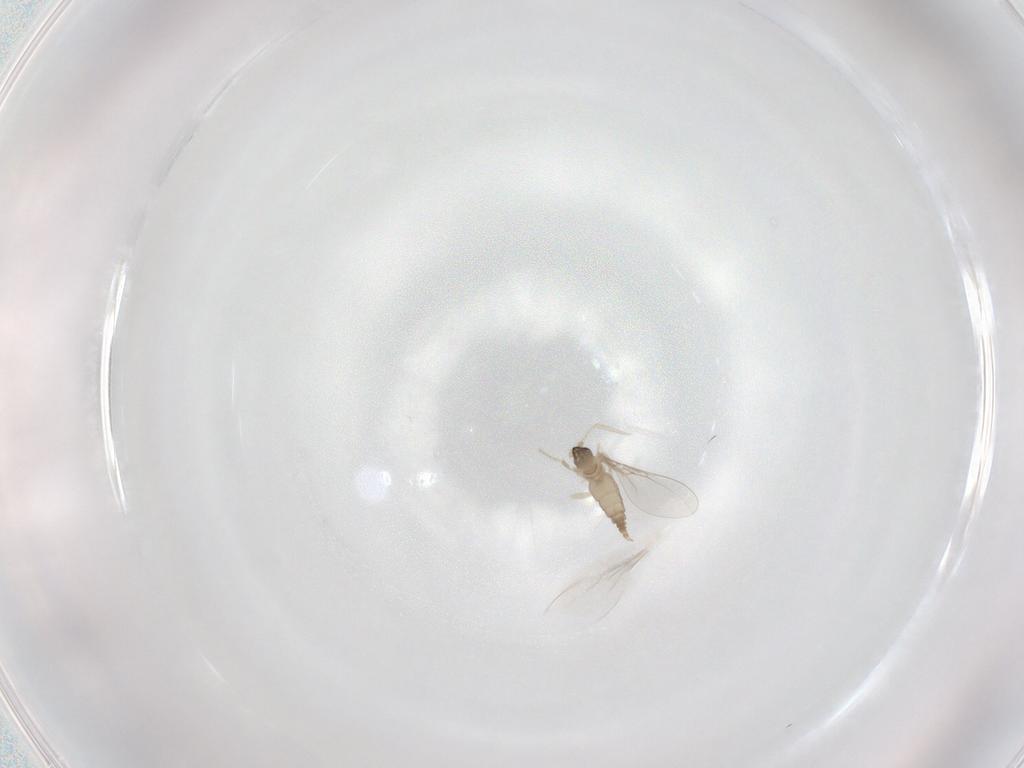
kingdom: Animalia
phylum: Arthropoda
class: Insecta
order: Diptera
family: Cecidomyiidae
